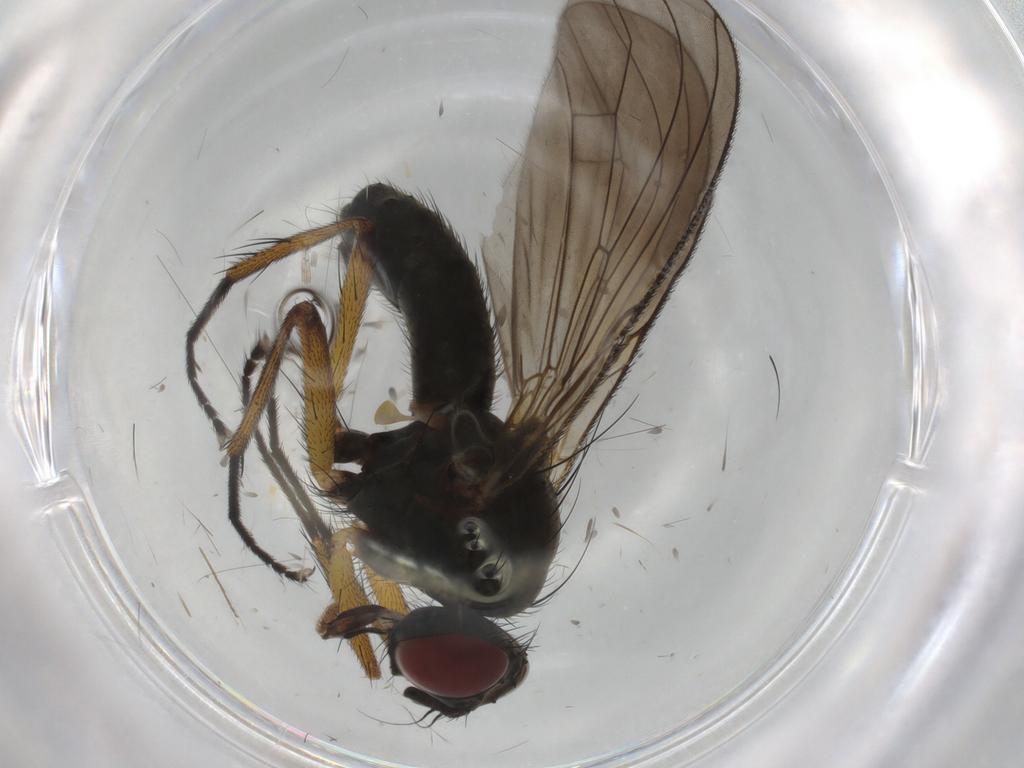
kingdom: Animalia
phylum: Arthropoda
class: Insecta
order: Diptera
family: Muscidae
